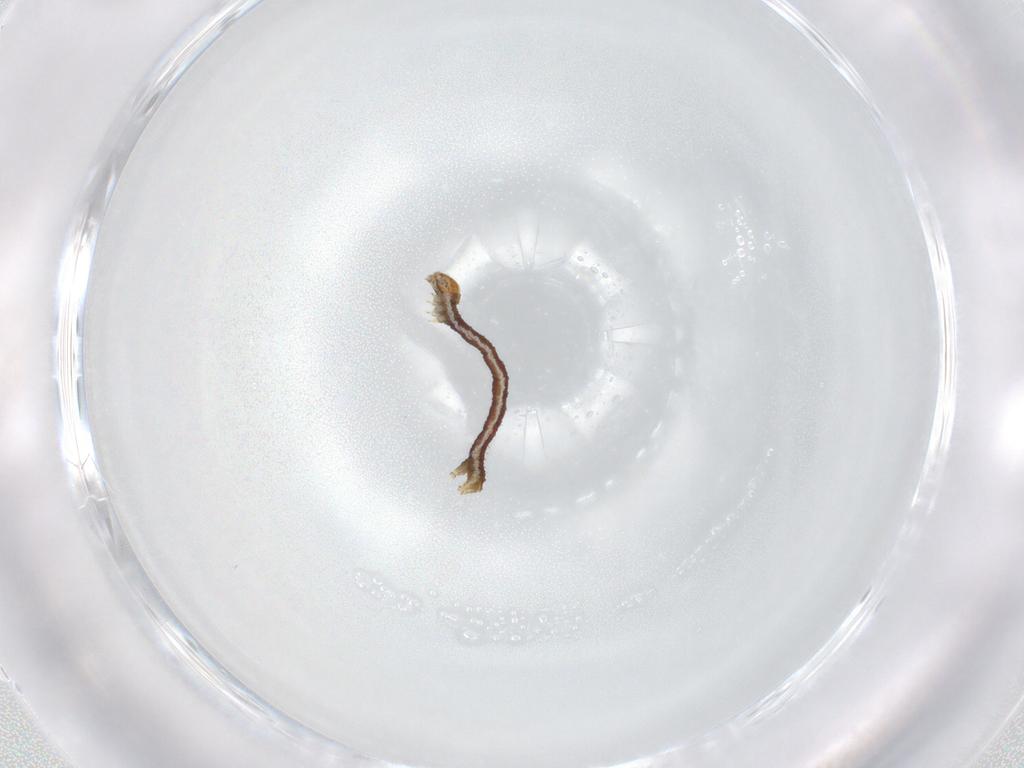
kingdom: Animalia
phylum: Arthropoda
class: Insecta
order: Lepidoptera
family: Geometridae
